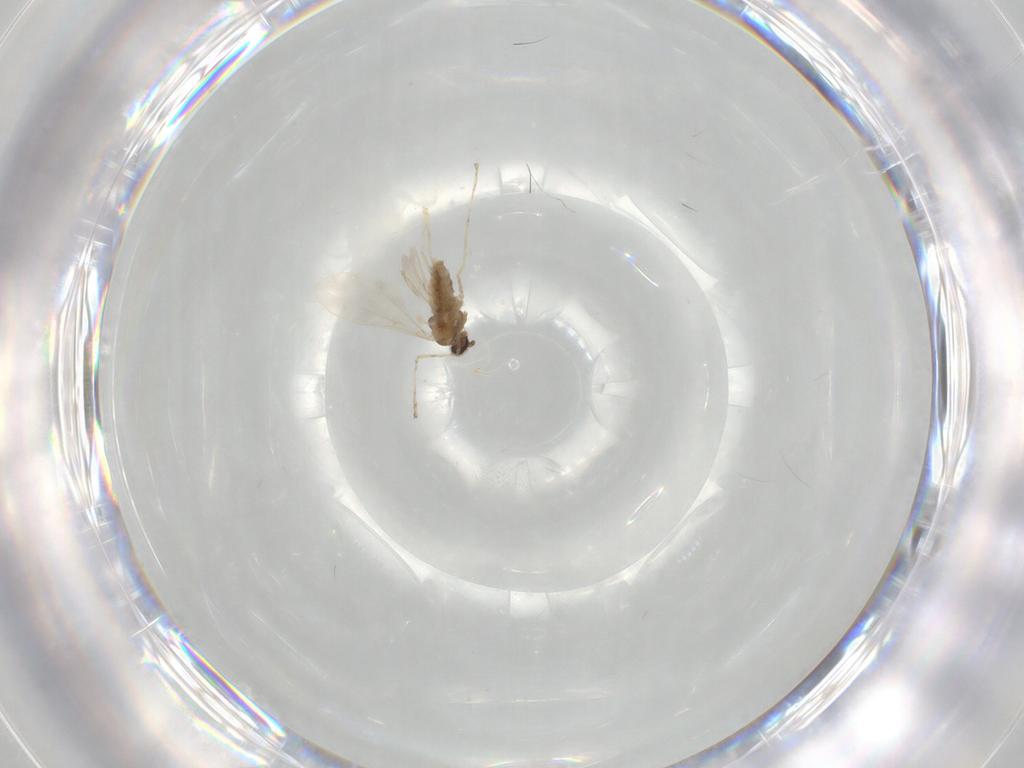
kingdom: Animalia
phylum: Arthropoda
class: Insecta
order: Diptera
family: Cecidomyiidae
